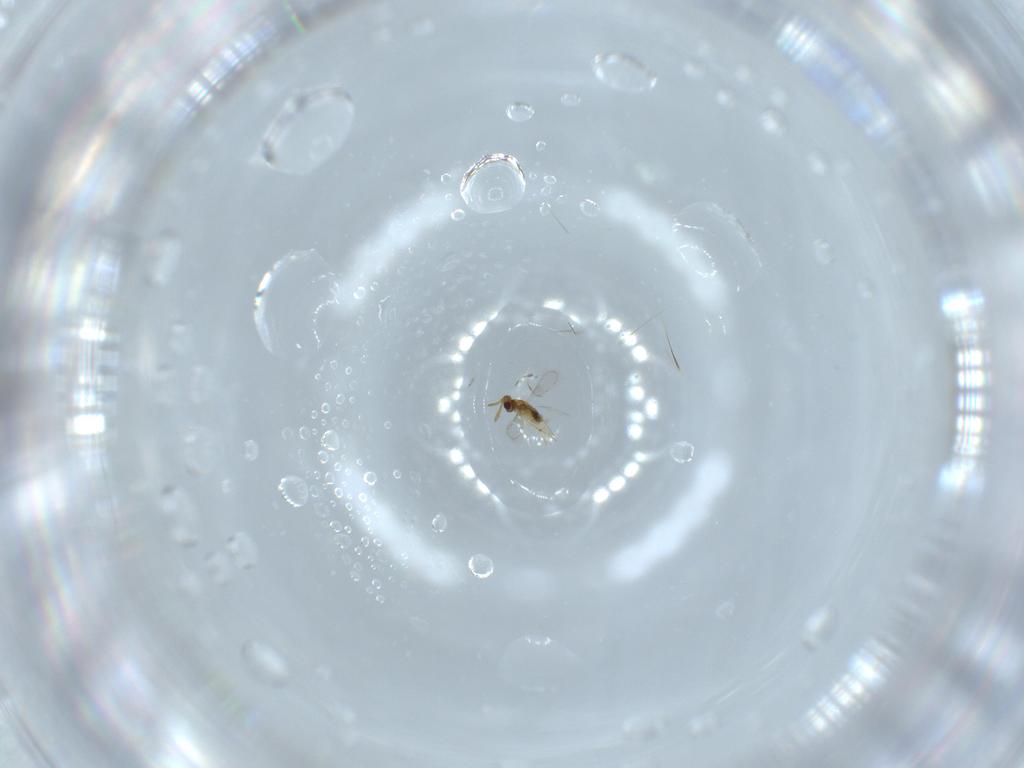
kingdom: Animalia
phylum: Arthropoda
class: Insecta
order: Hymenoptera
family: Aphelinidae
